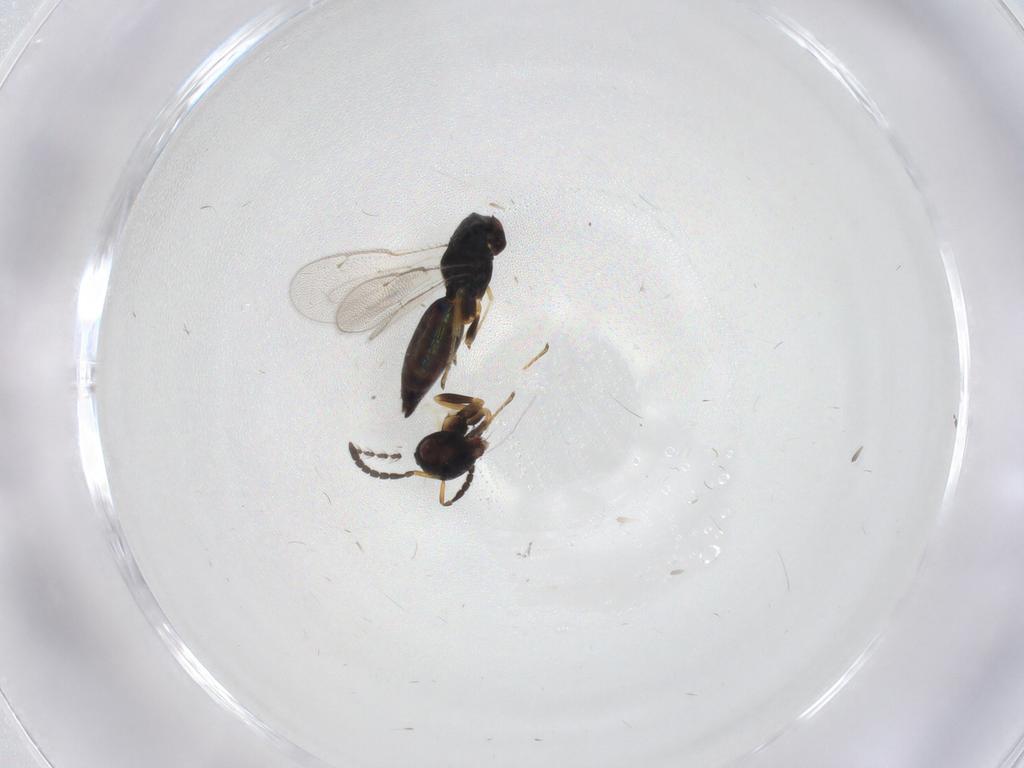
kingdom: Animalia
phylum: Arthropoda
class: Insecta
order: Hymenoptera
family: Pteromalidae
